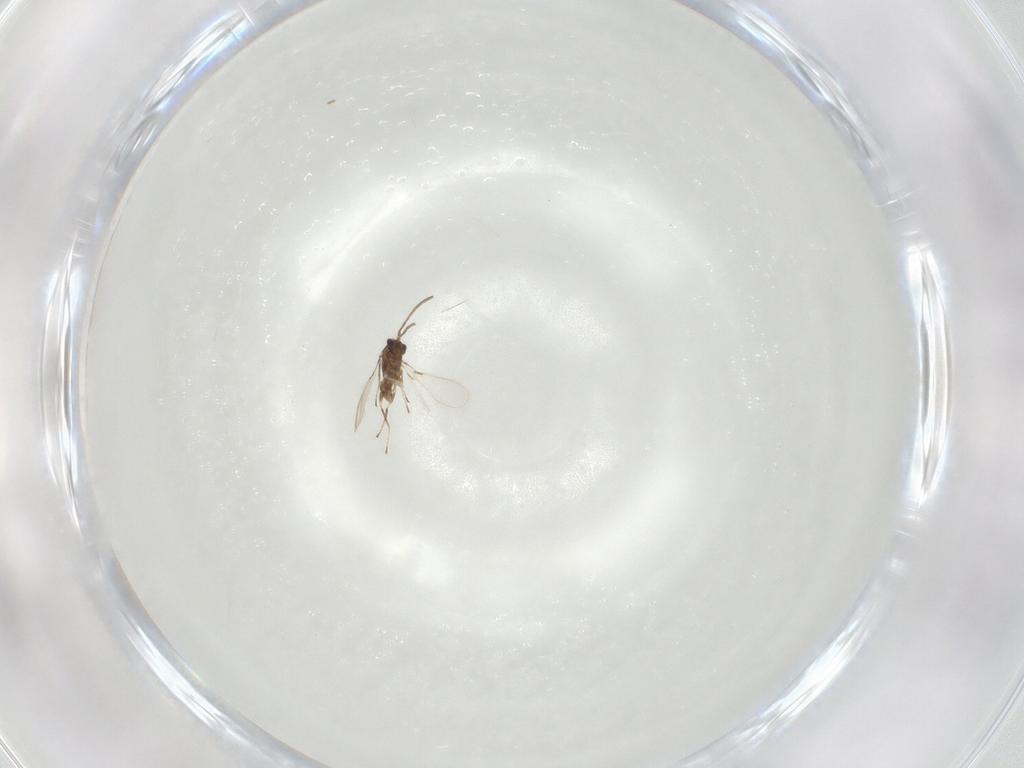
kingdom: Animalia
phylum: Arthropoda
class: Insecta
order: Hymenoptera
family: Mymaridae
